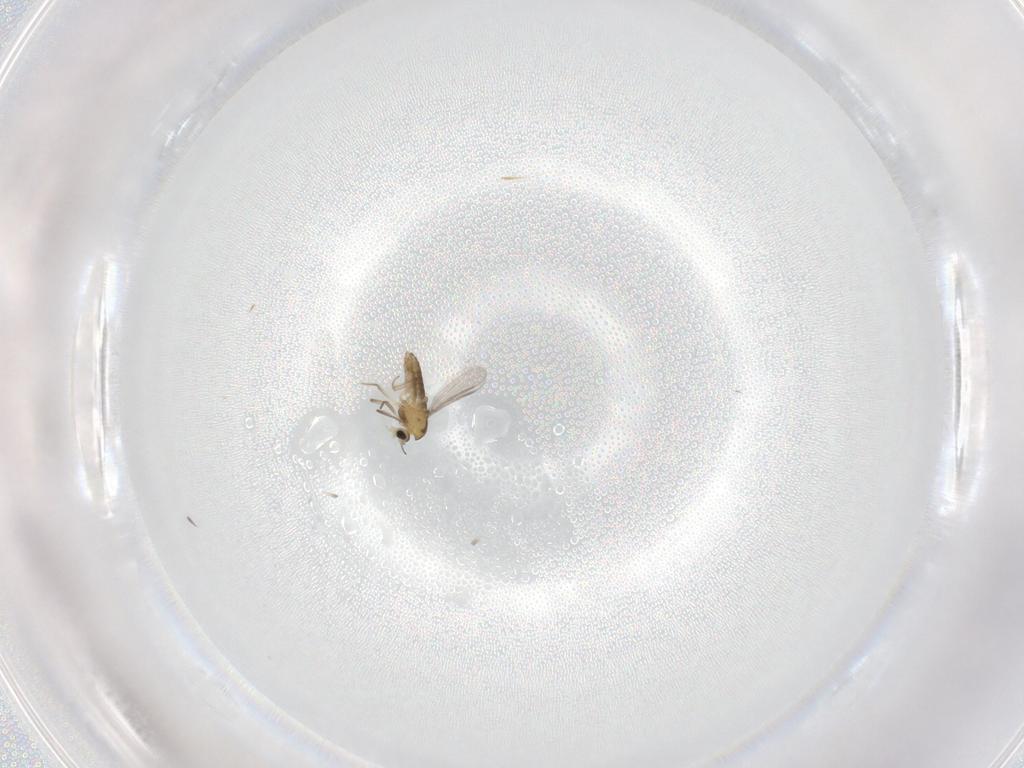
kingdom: Animalia
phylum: Arthropoda
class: Insecta
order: Diptera
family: Chironomidae
